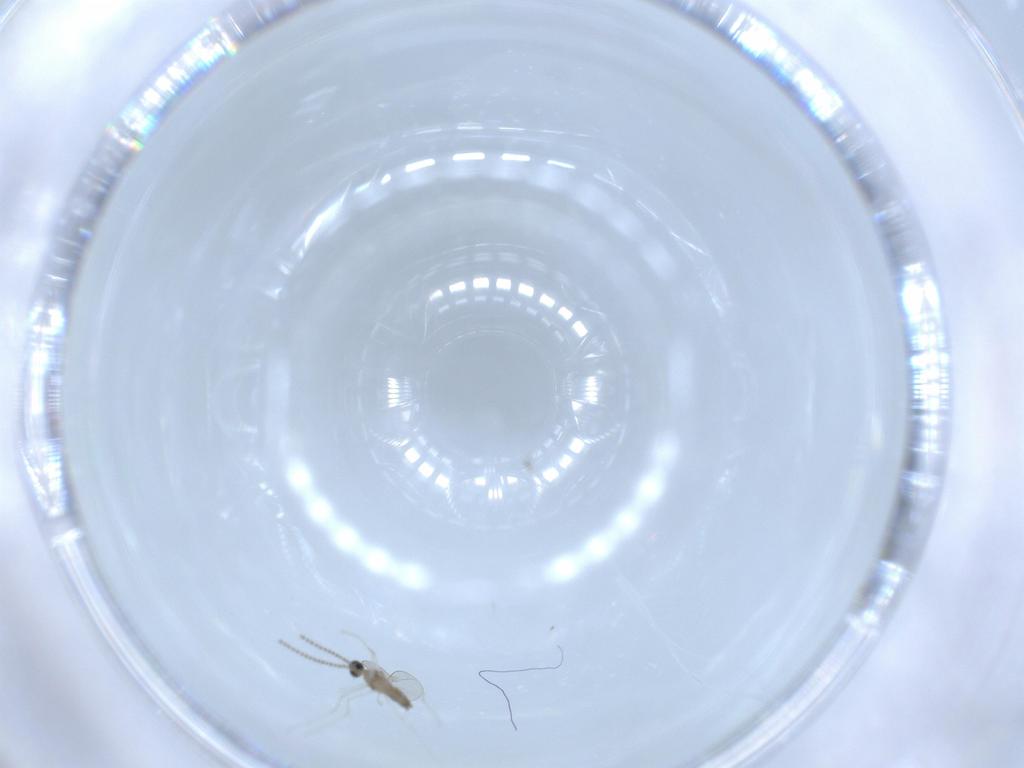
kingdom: Animalia
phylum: Arthropoda
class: Insecta
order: Diptera
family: Cecidomyiidae
